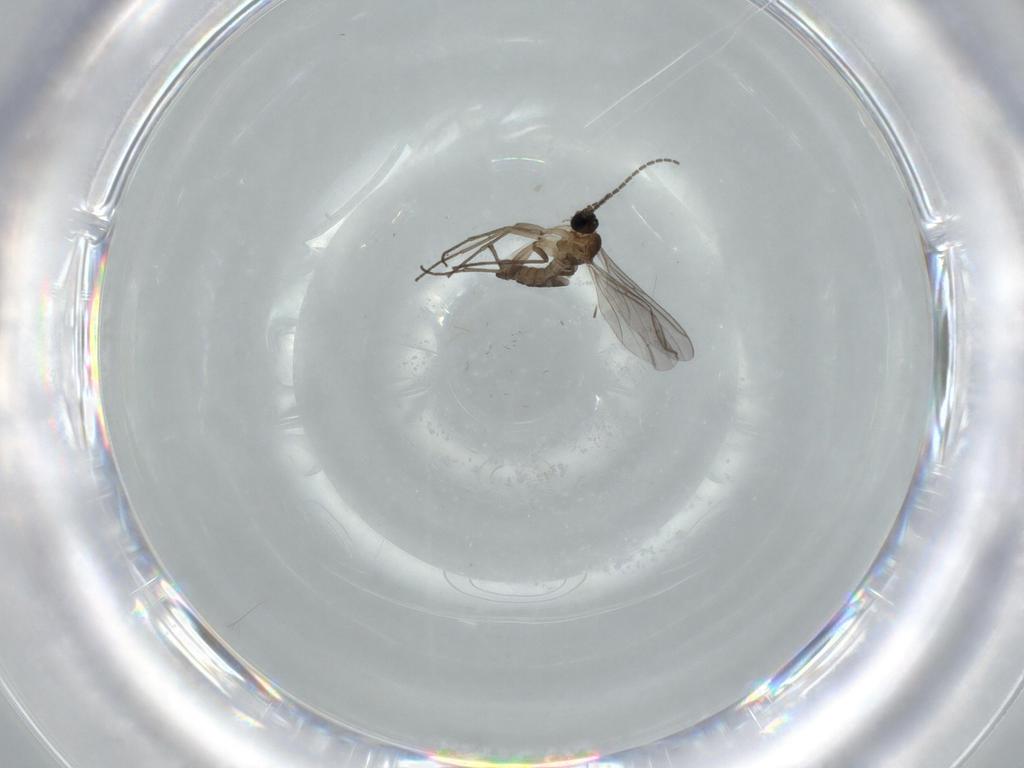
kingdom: Animalia
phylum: Arthropoda
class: Insecta
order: Diptera
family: Sciaridae
